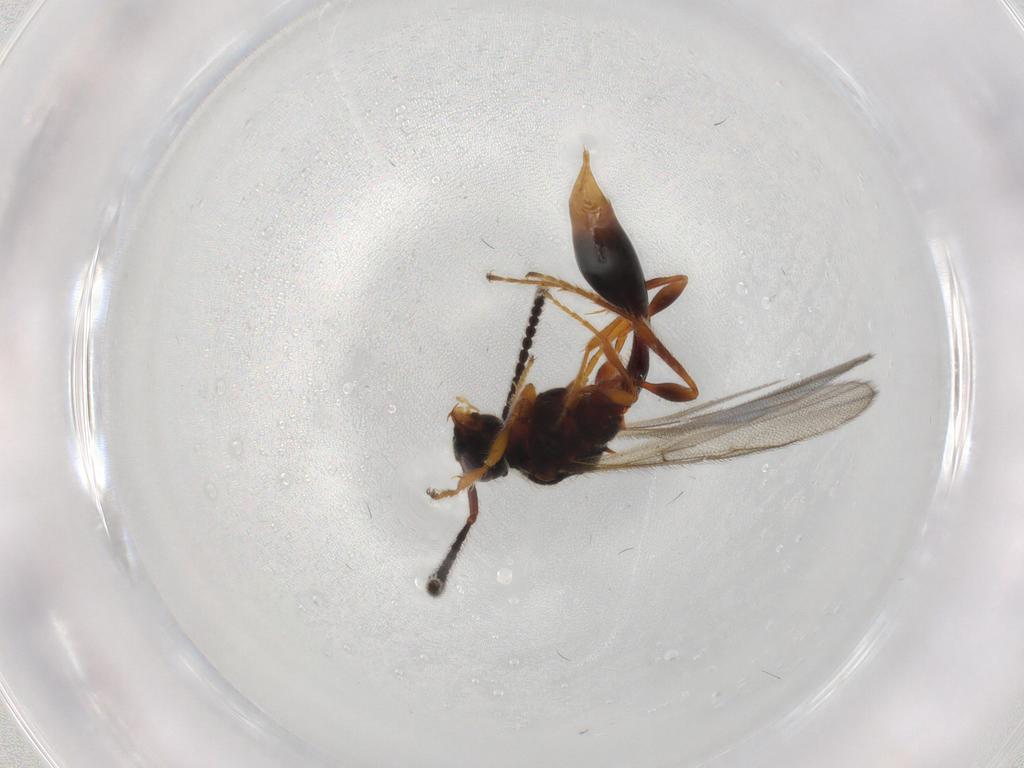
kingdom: Animalia
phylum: Arthropoda
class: Insecta
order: Hymenoptera
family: Diapriidae
